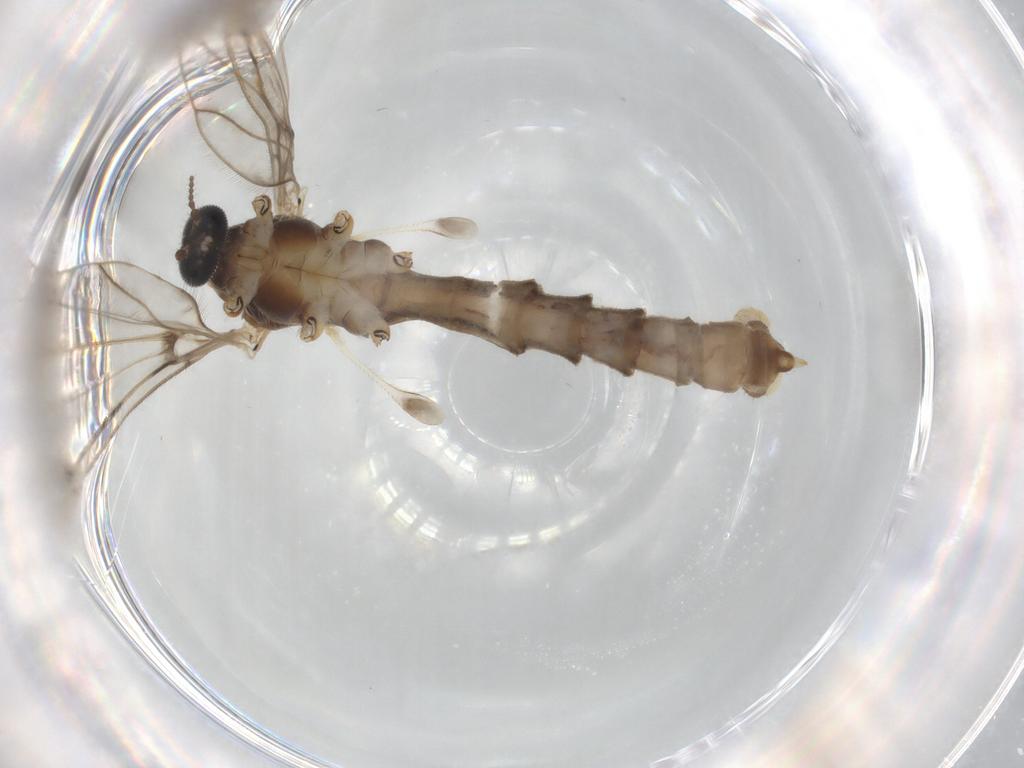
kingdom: Animalia
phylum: Arthropoda
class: Insecta
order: Diptera
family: Limoniidae
